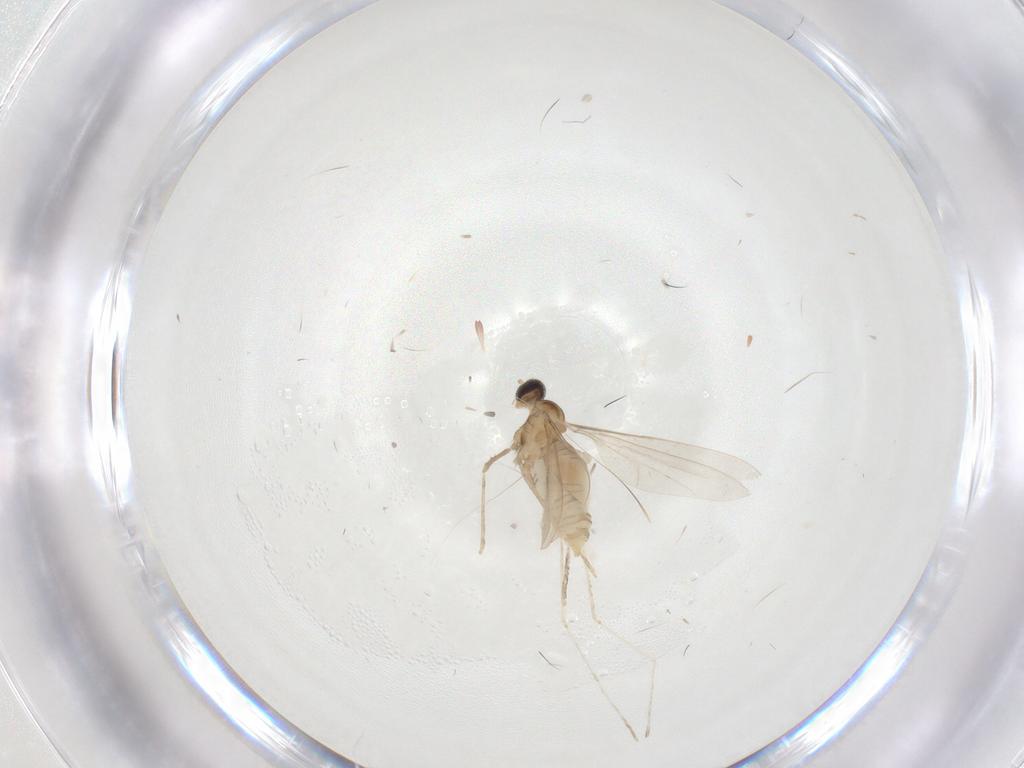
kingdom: Animalia
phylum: Arthropoda
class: Insecta
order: Diptera
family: Cecidomyiidae
